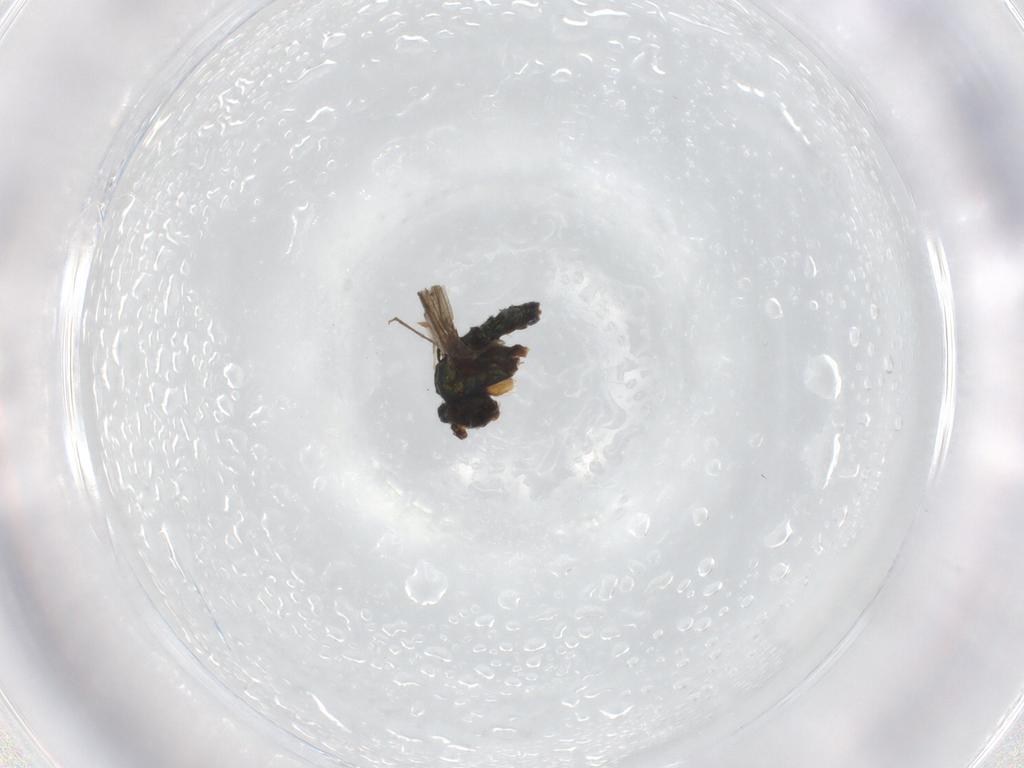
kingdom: Animalia
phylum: Arthropoda
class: Insecta
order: Diptera
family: Chironomidae
